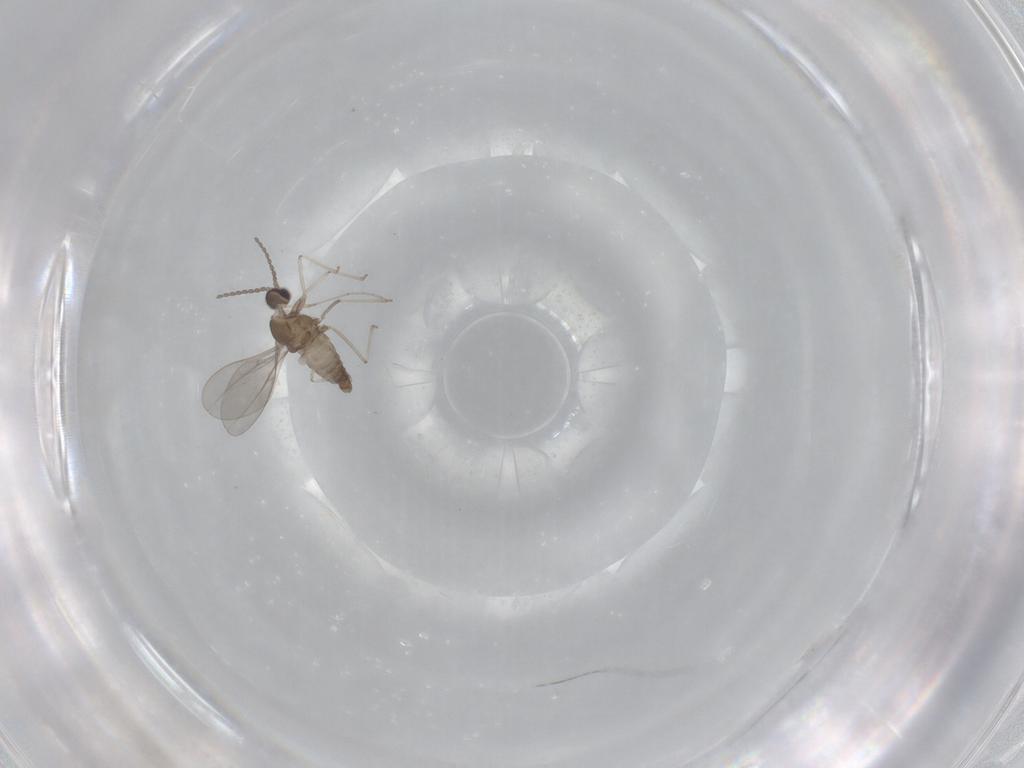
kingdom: Animalia
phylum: Arthropoda
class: Insecta
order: Diptera
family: Cecidomyiidae
